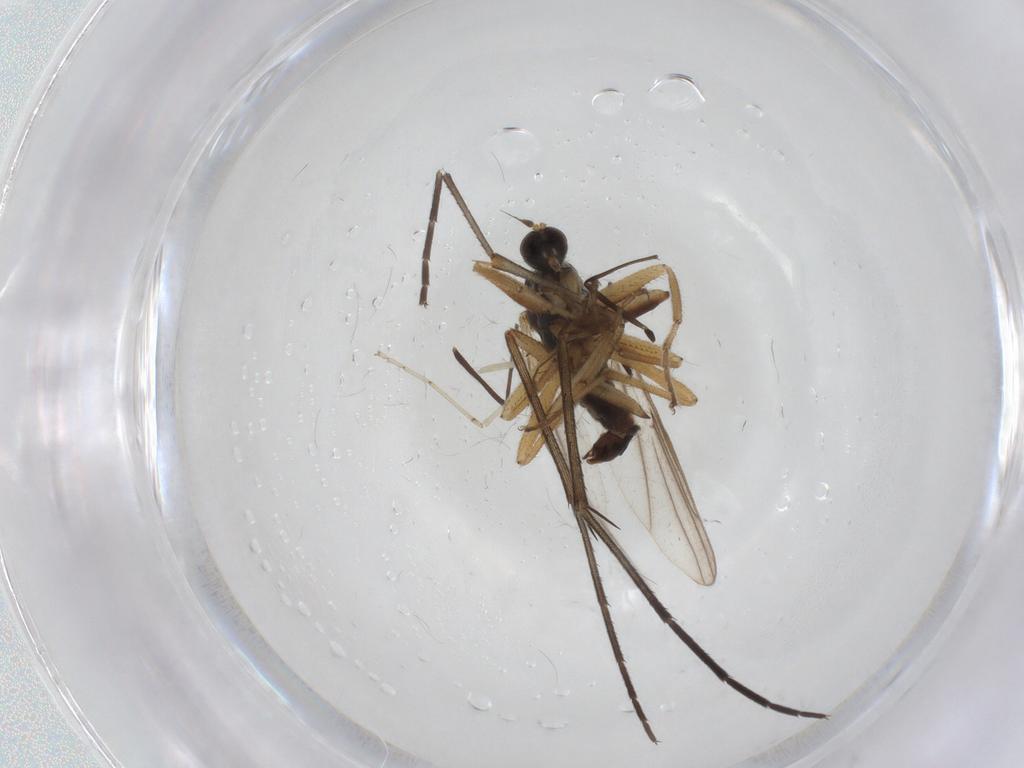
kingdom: Animalia
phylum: Arthropoda
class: Insecta
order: Diptera
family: Hybotidae
